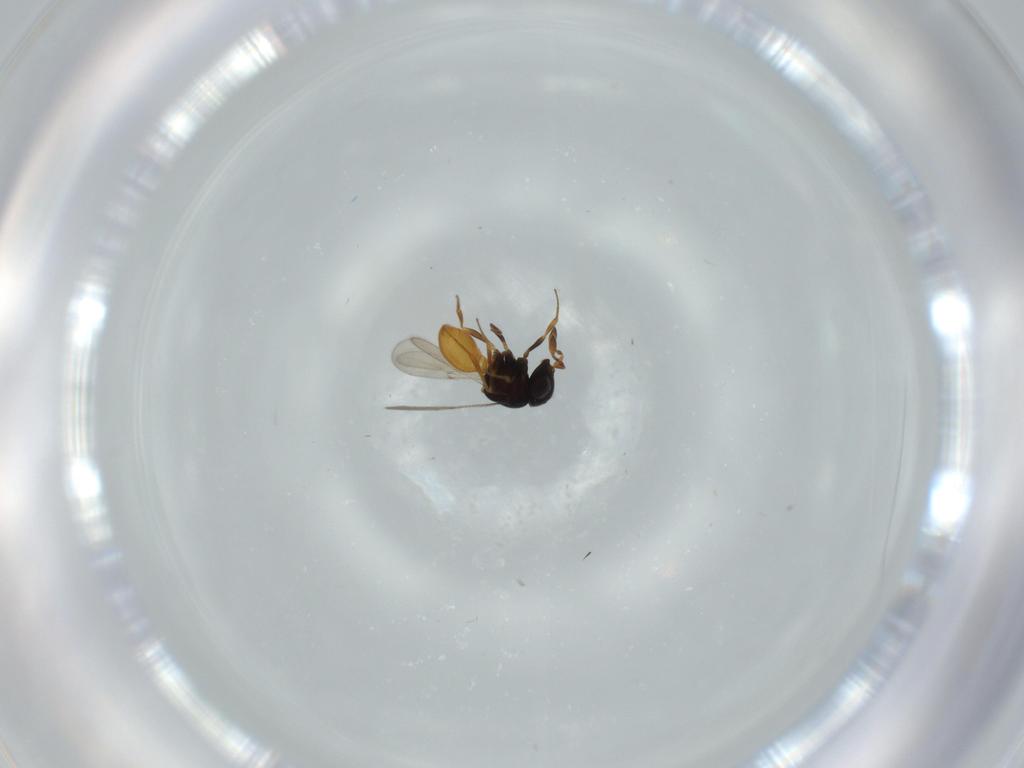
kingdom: Animalia
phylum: Arthropoda
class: Insecta
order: Hymenoptera
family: Scelionidae
